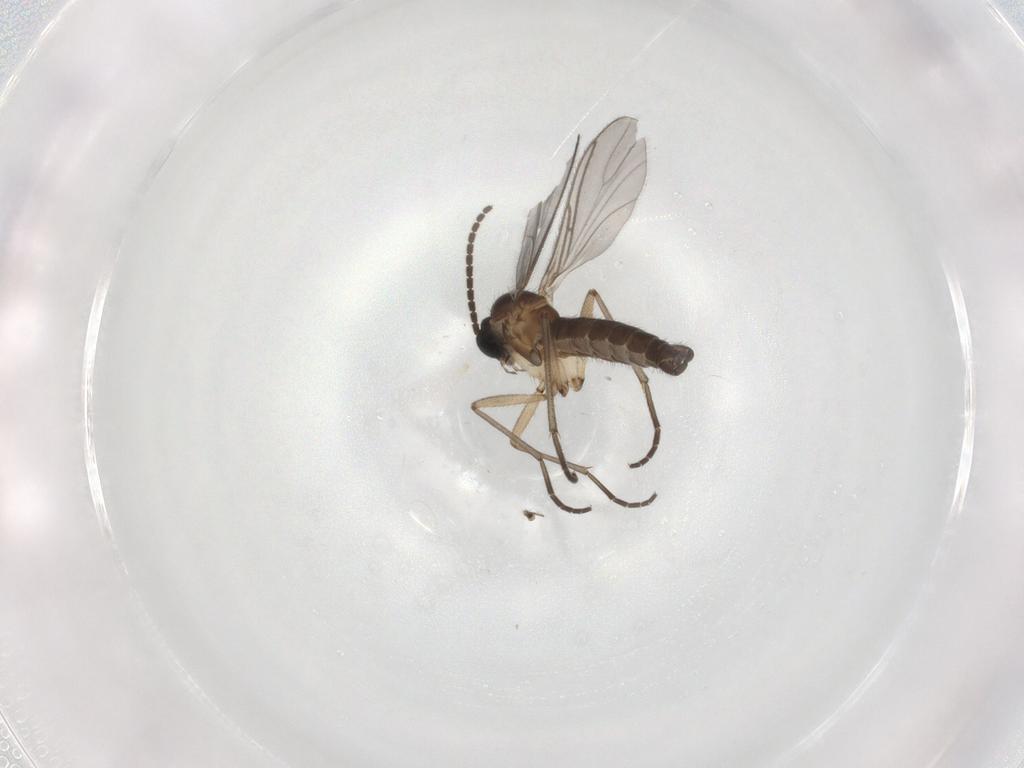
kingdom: Animalia
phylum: Arthropoda
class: Insecta
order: Diptera
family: Sciaridae
